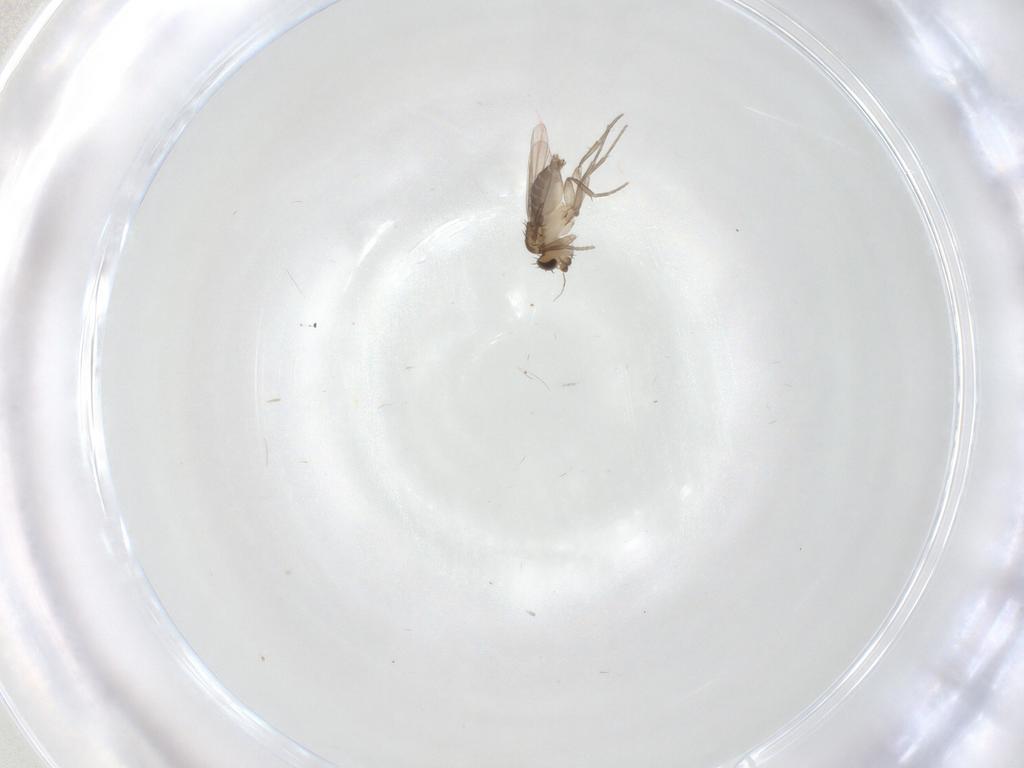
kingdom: Animalia
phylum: Arthropoda
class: Insecta
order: Diptera
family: Phoridae
